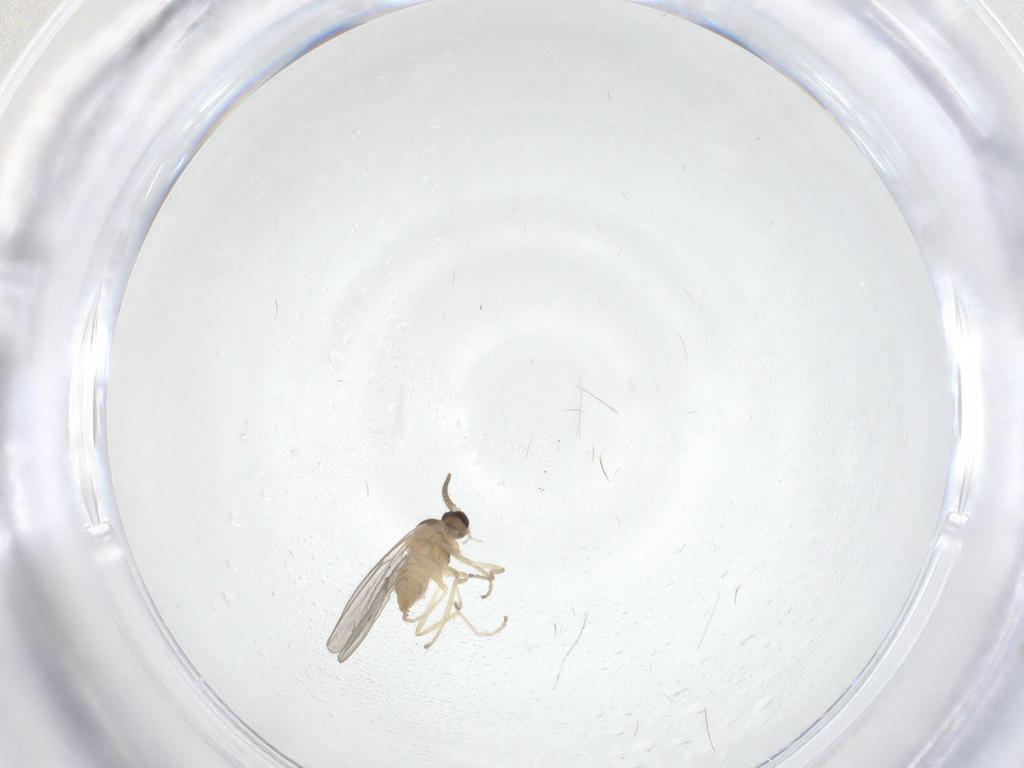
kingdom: Animalia
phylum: Arthropoda
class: Insecta
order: Diptera
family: Cecidomyiidae
